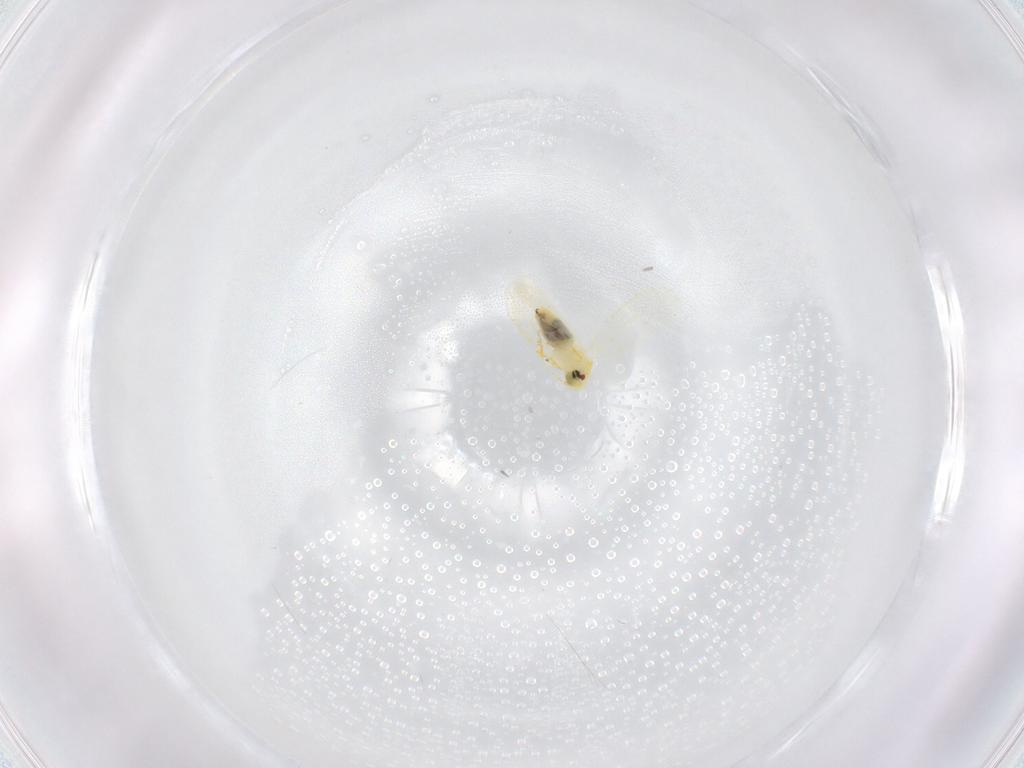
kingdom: Animalia
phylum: Arthropoda
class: Insecta
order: Hemiptera
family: Aleyrodidae
